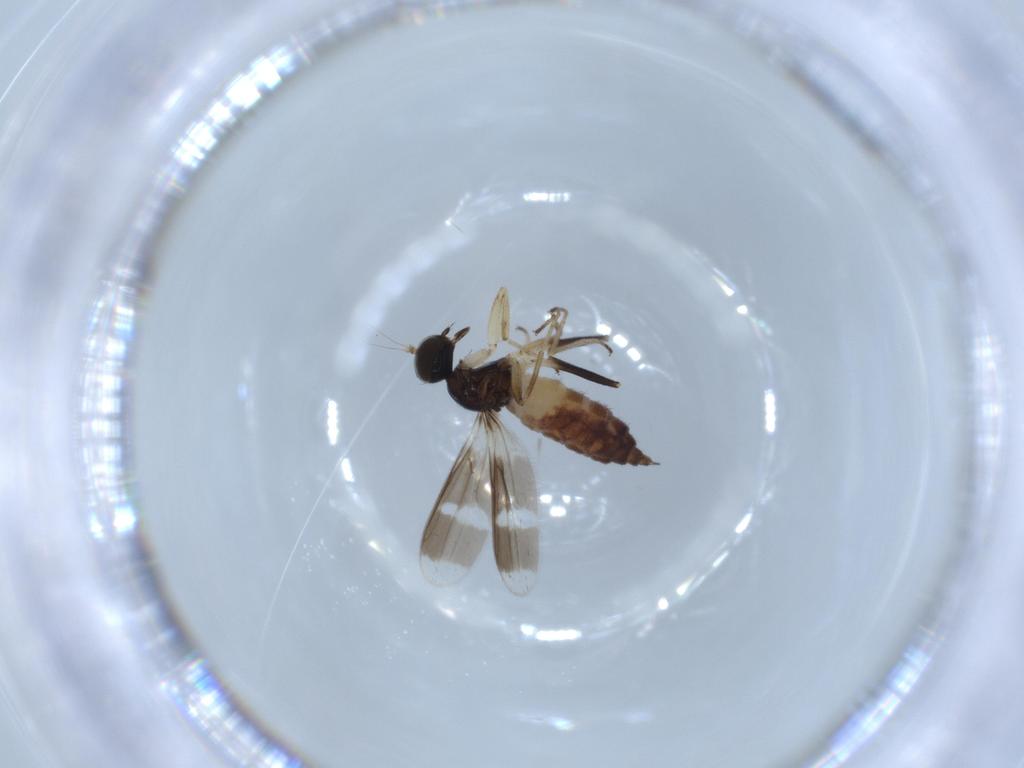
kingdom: Animalia
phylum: Arthropoda
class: Insecta
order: Diptera
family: Hybotidae
